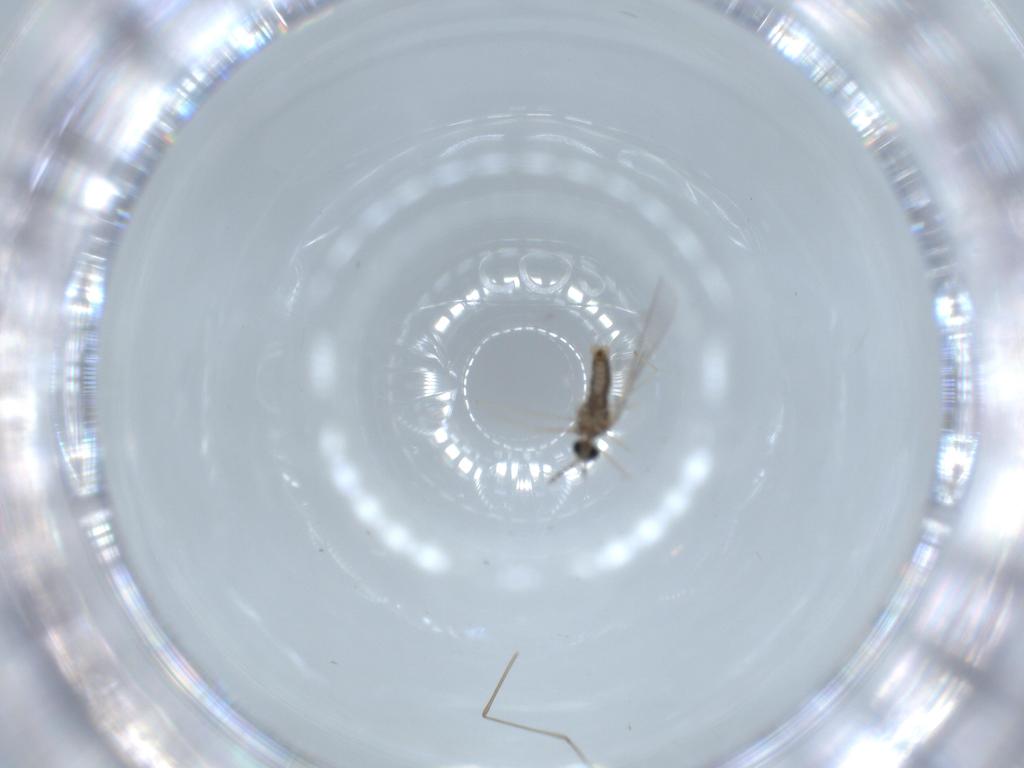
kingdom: Animalia
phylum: Arthropoda
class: Insecta
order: Diptera
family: Cecidomyiidae
